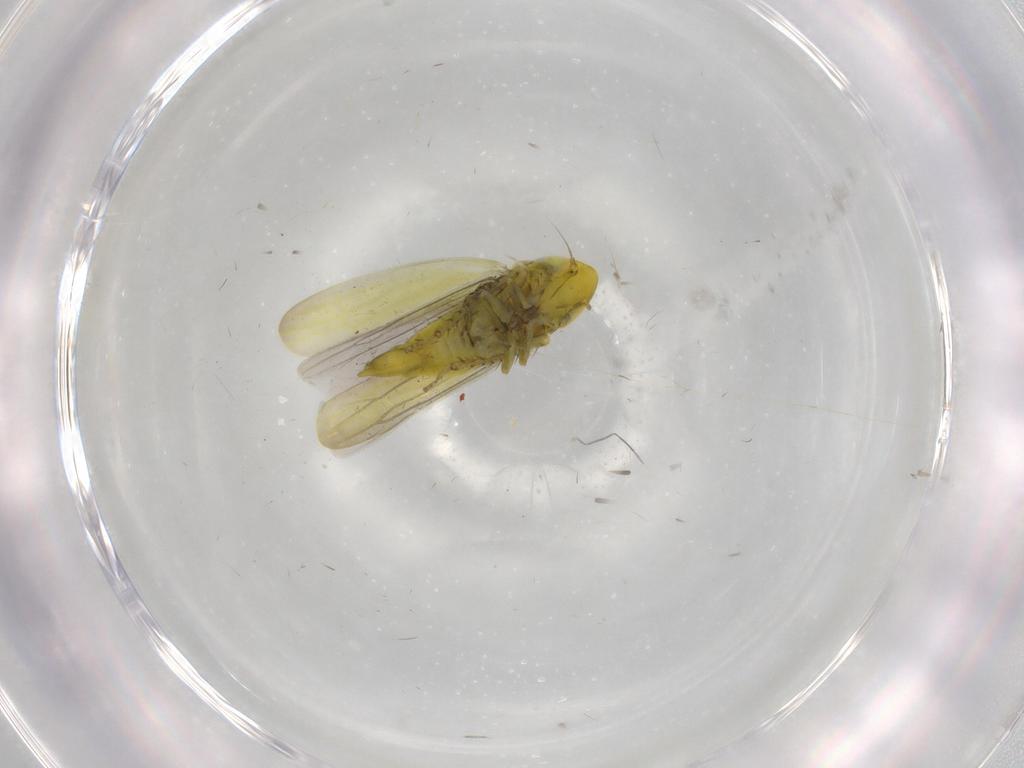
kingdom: Animalia
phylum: Arthropoda
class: Insecta
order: Hemiptera
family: Cicadellidae
